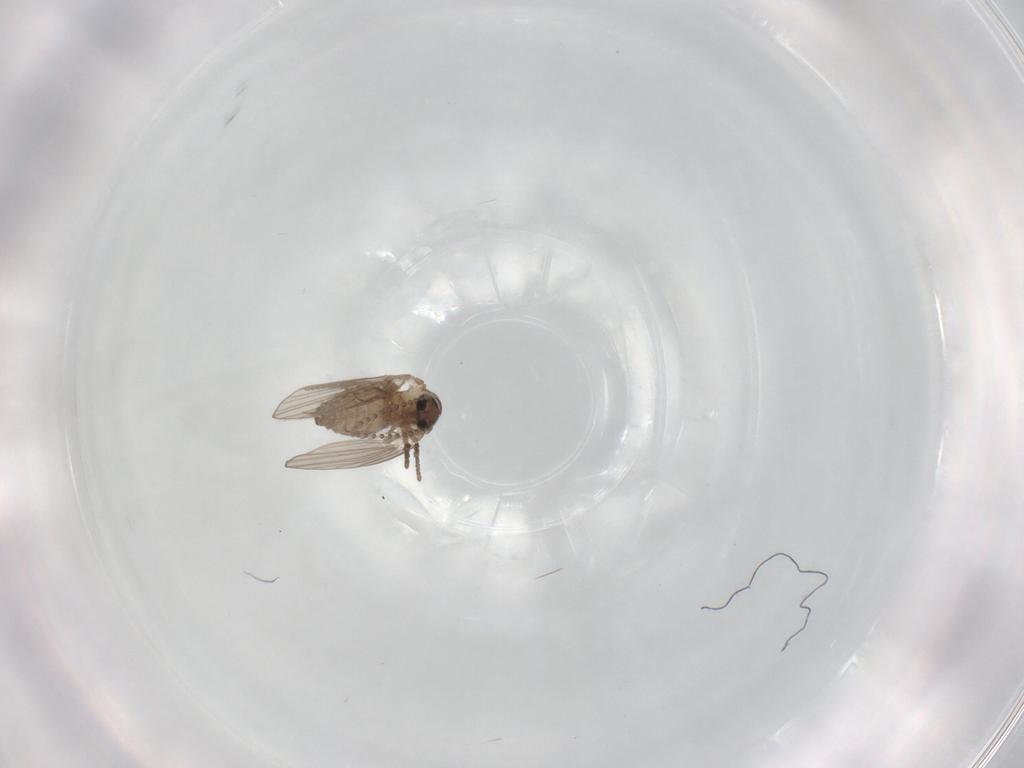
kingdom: Animalia
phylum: Arthropoda
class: Insecta
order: Diptera
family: Psychodidae
